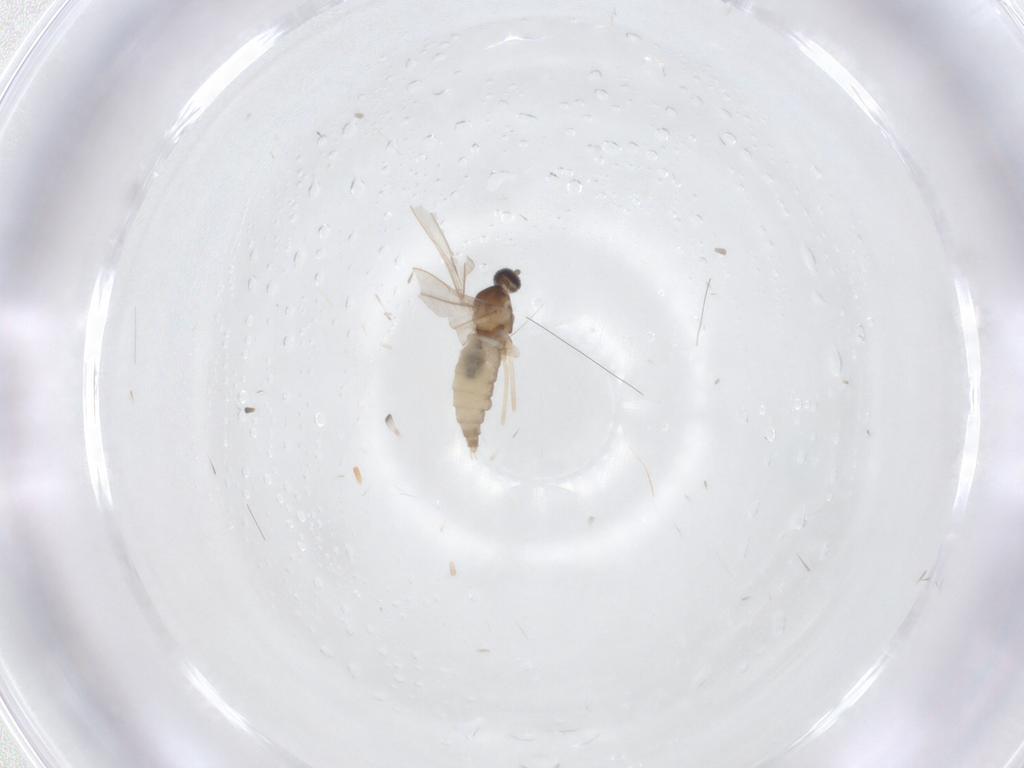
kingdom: Animalia
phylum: Arthropoda
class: Insecta
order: Diptera
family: Cecidomyiidae
